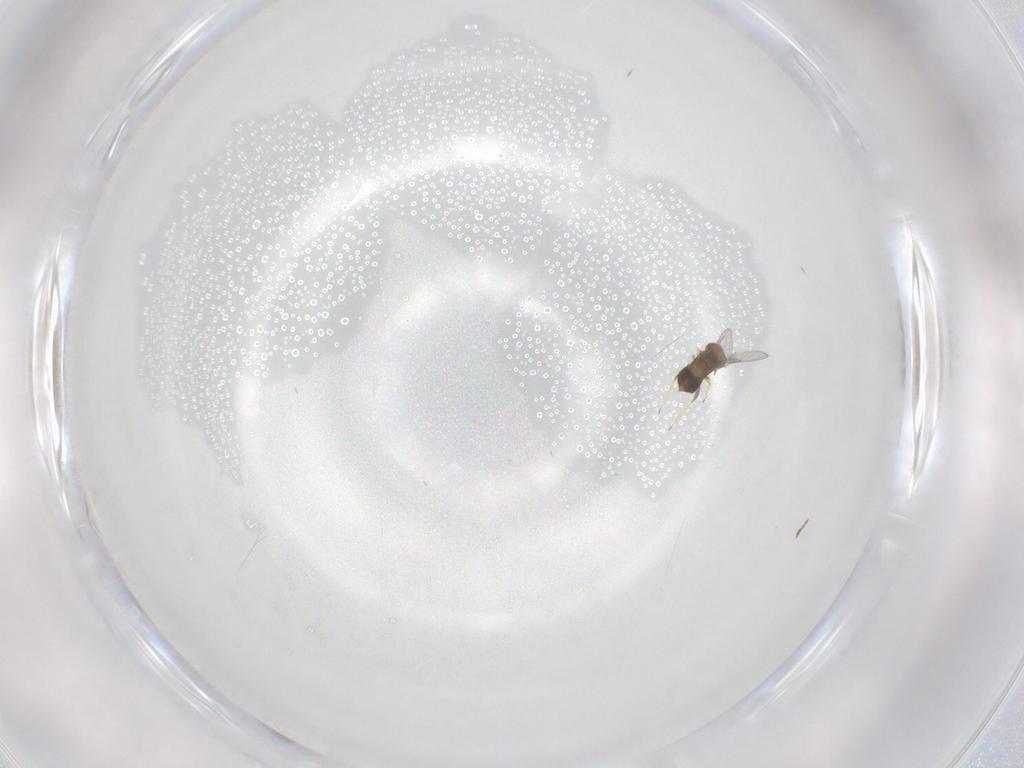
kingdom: Animalia
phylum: Arthropoda
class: Insecta
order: Hymenoptera
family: Trichogrammatidae
